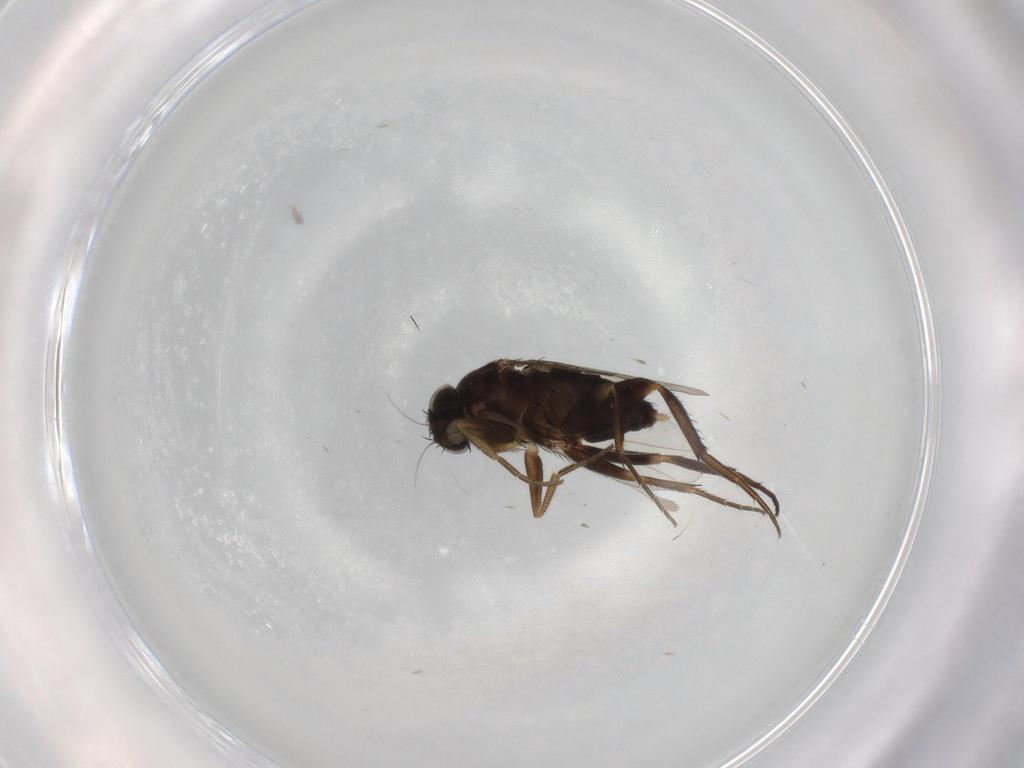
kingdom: Animalia
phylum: Arthropoda
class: Insecta
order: Diptera
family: Phoridae
